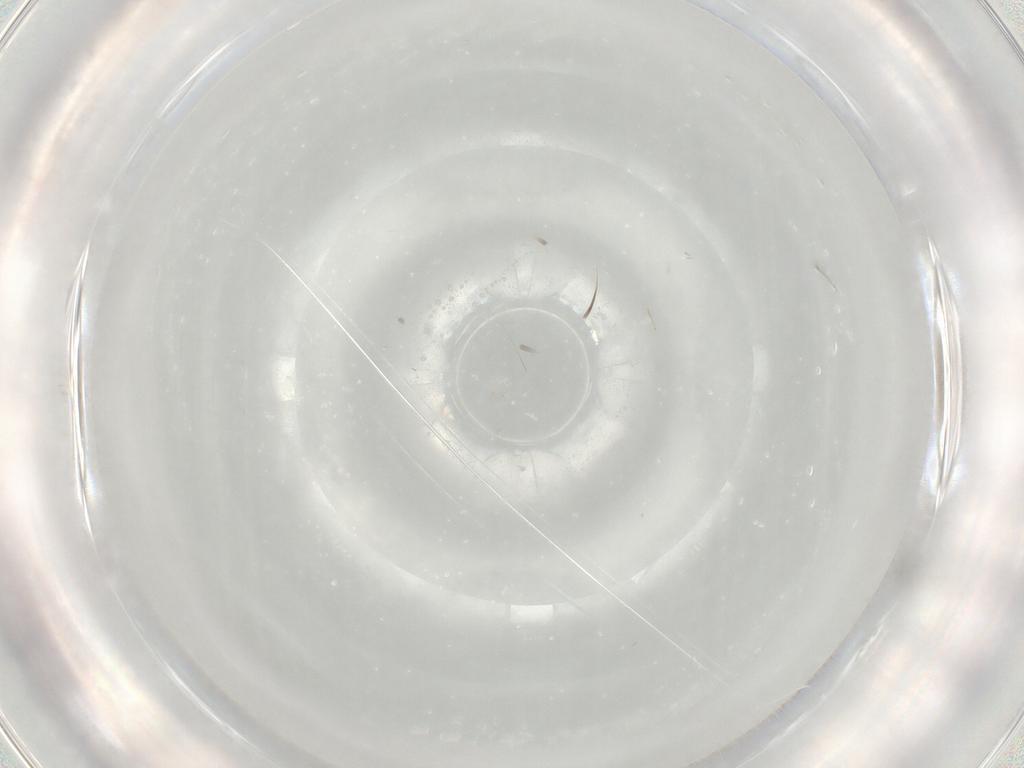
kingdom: Animalia
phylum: Arthropoda
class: Insecta
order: Hymenoptera
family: Mymaridae
